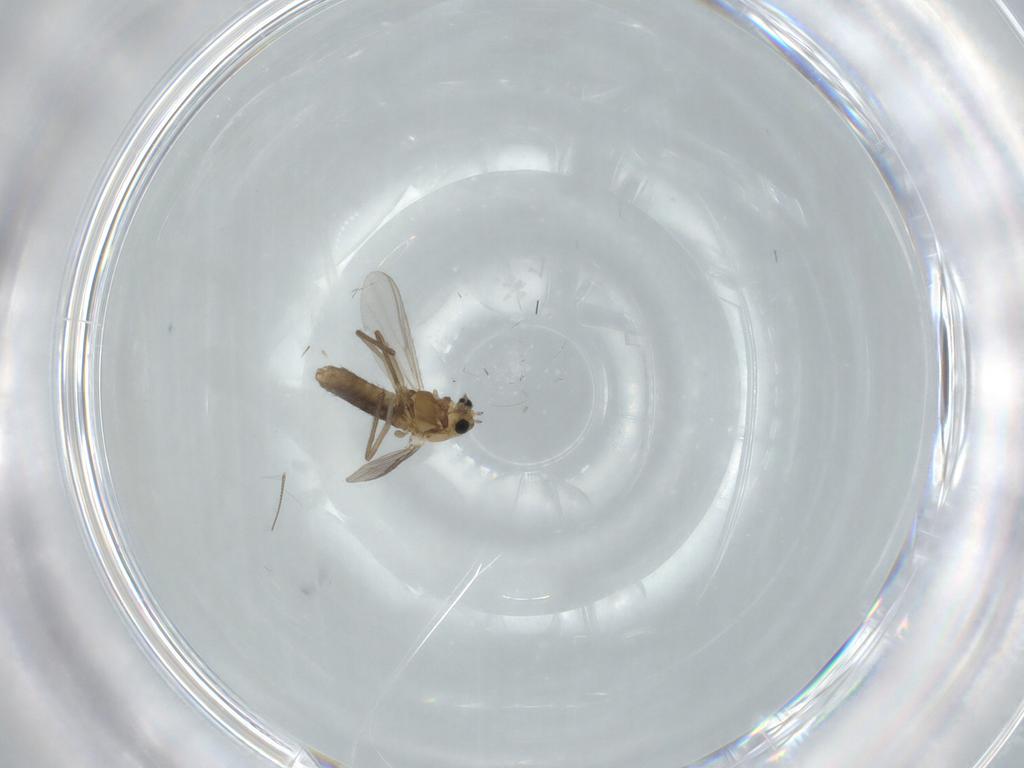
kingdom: Animalia
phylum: Arthropoda
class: Insecta
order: Diptera
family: Chironomidae
